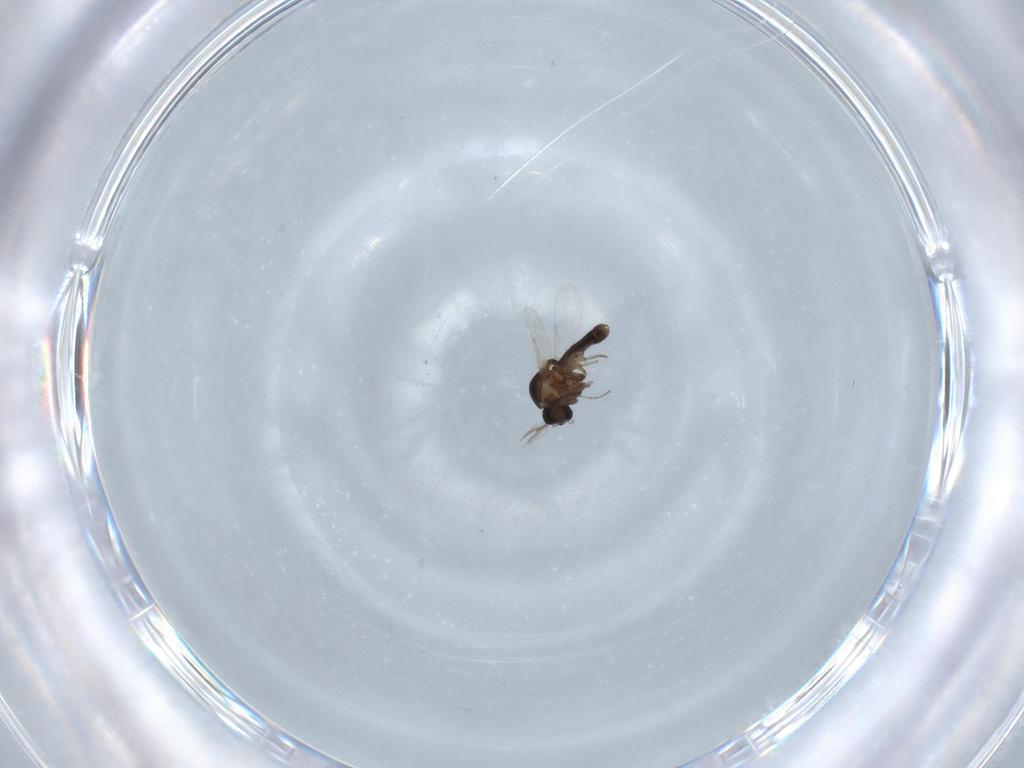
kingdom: Animalia
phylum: Arthropoda
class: Insecta
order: Diptera
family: Ceratopogonidae
